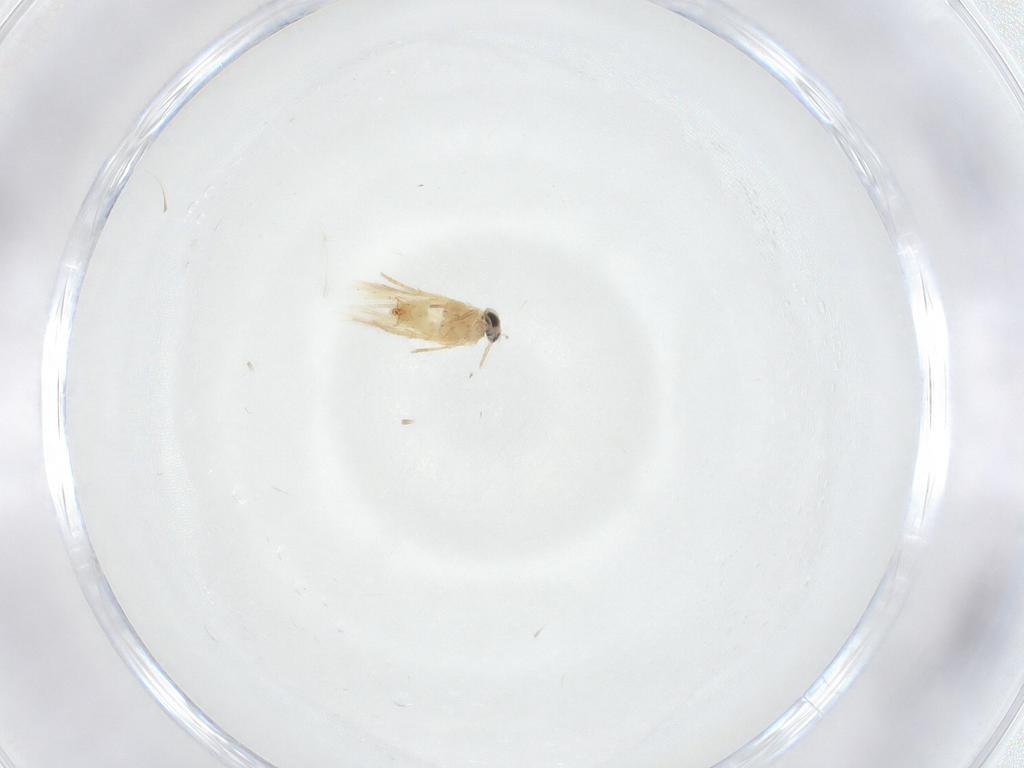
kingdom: Animalia
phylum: Arthropoda
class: Insecta
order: Lepidoptera
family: Crambidae
